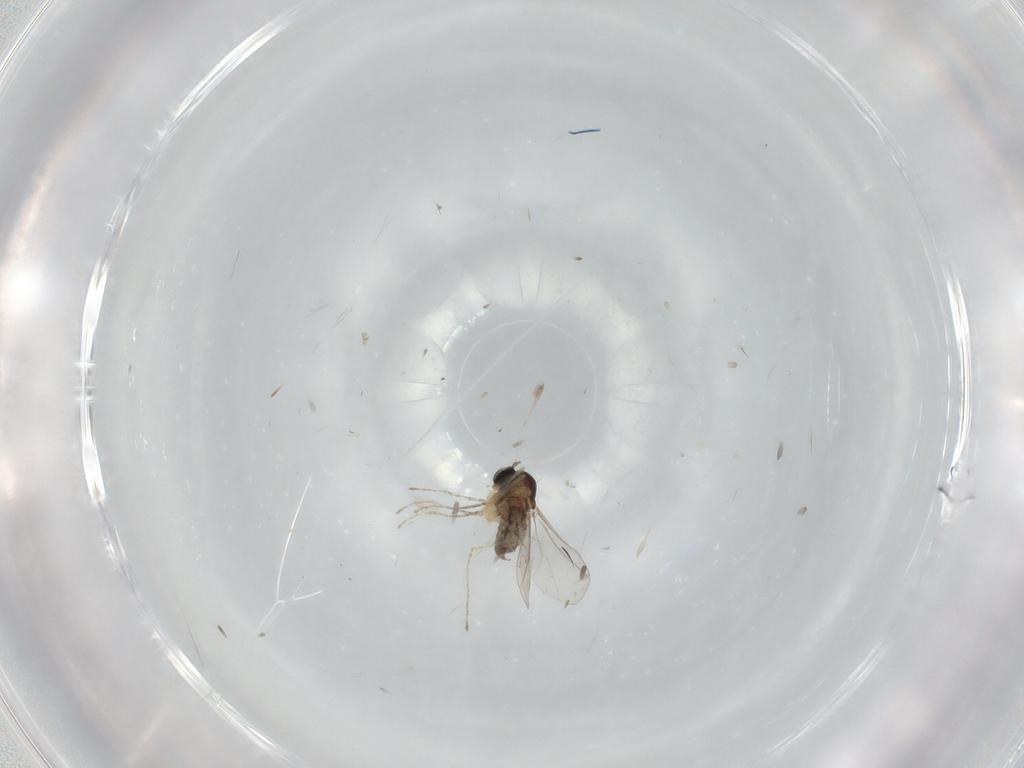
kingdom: Animalia
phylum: Arthropoda
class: Insecta
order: Diptera
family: Cecidomyiidae
